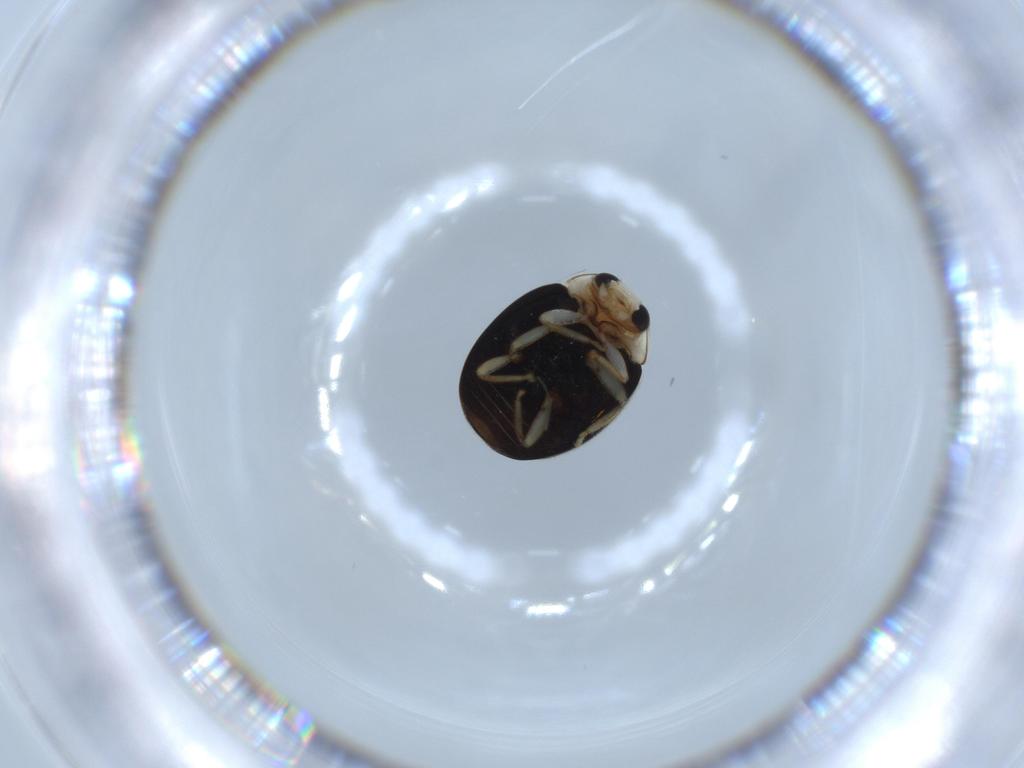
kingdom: Animalia
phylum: Arthropoda
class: Insecta
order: Coleoptera
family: Coccinellidae
